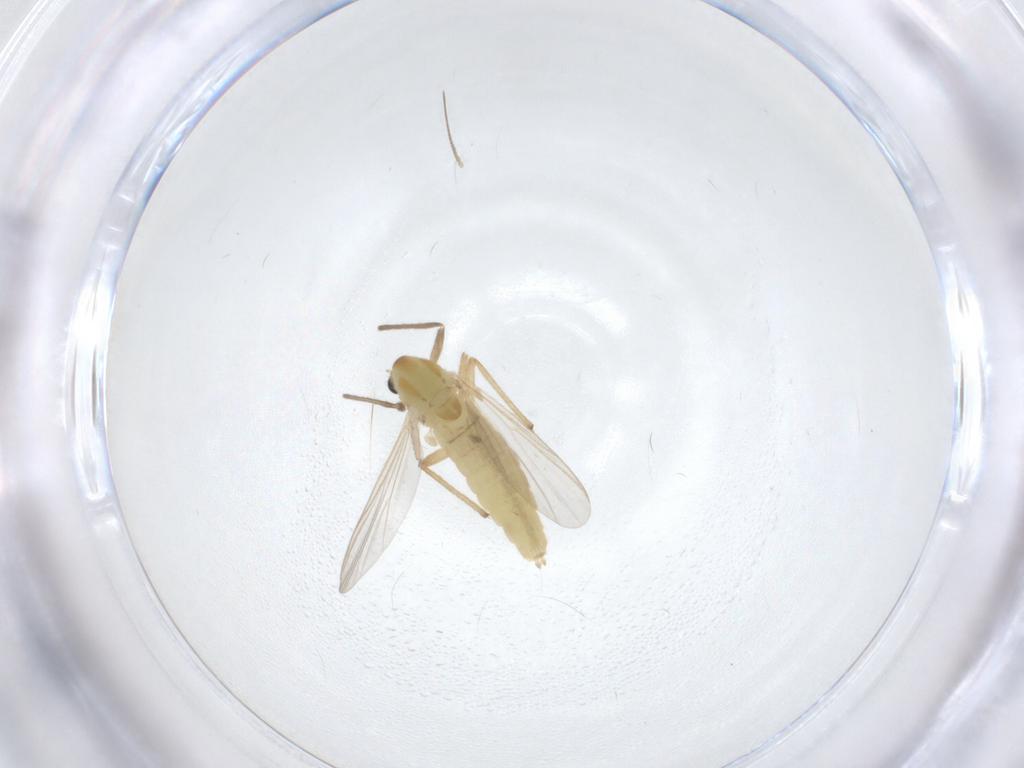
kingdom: Animalia
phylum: Arthropoda
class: Insecta
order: Diptera
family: Chironomidae
